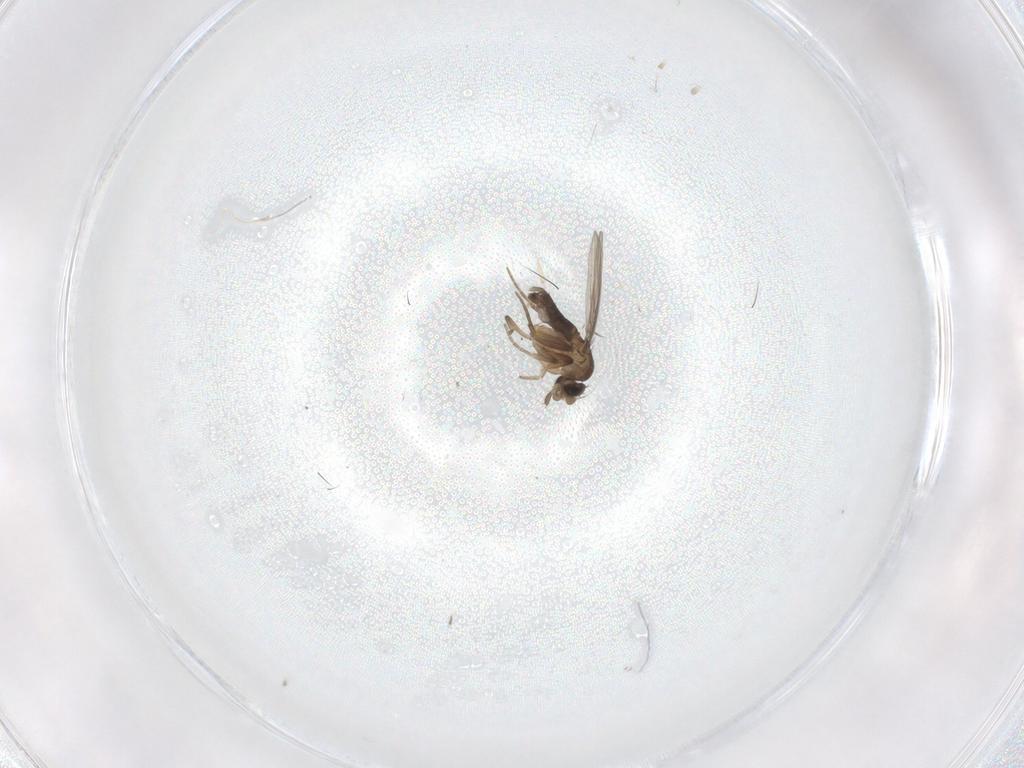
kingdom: Animalia
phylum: Arthropoda
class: Insecta
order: Diptera
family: Phoridae
